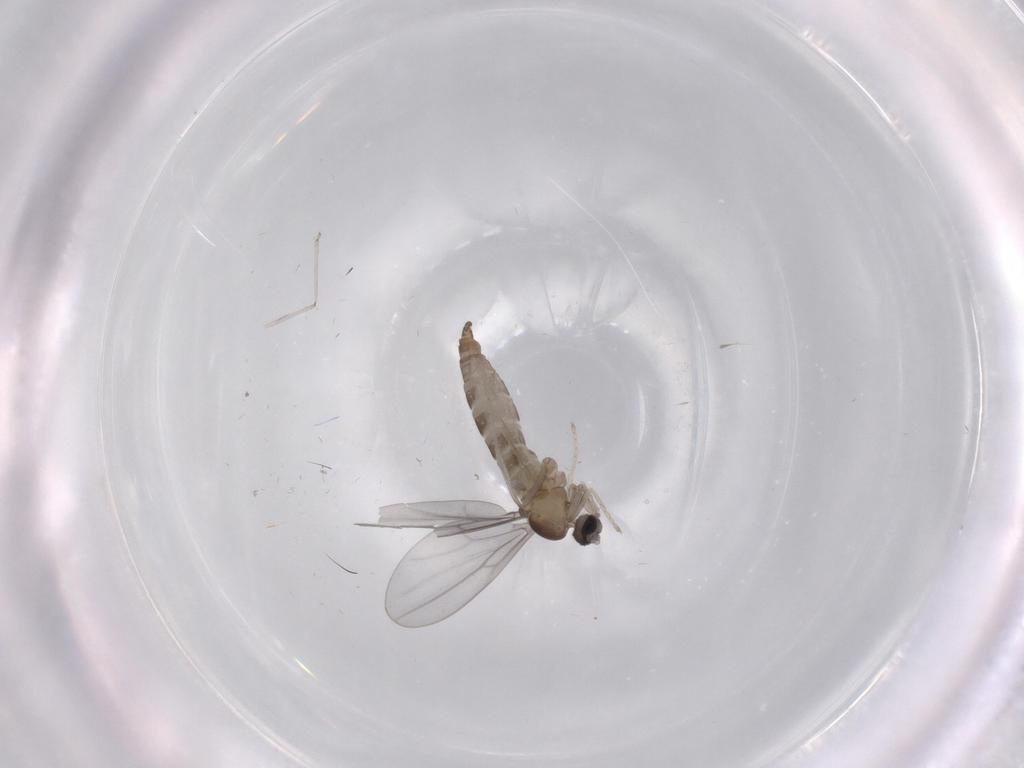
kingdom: Animalia
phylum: Arthropoda
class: Insecta
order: Diptera
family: Cecidomyiidae
